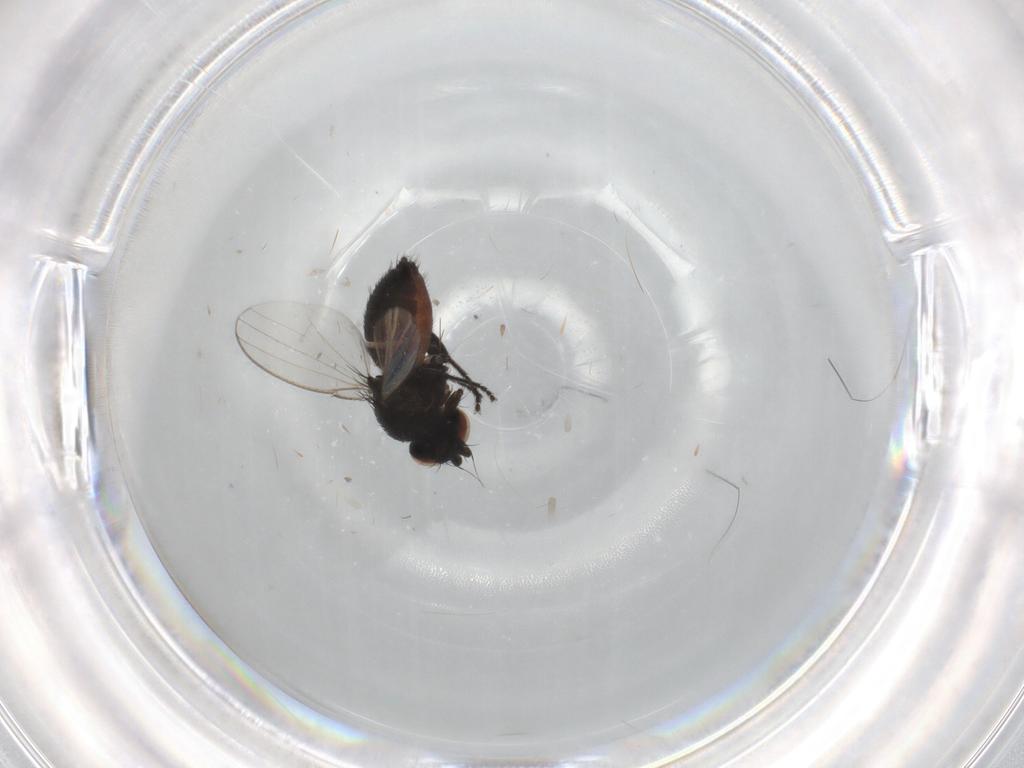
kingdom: Animalia
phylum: Arthropoda
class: Insecta
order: Diptera
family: Milichiidae
